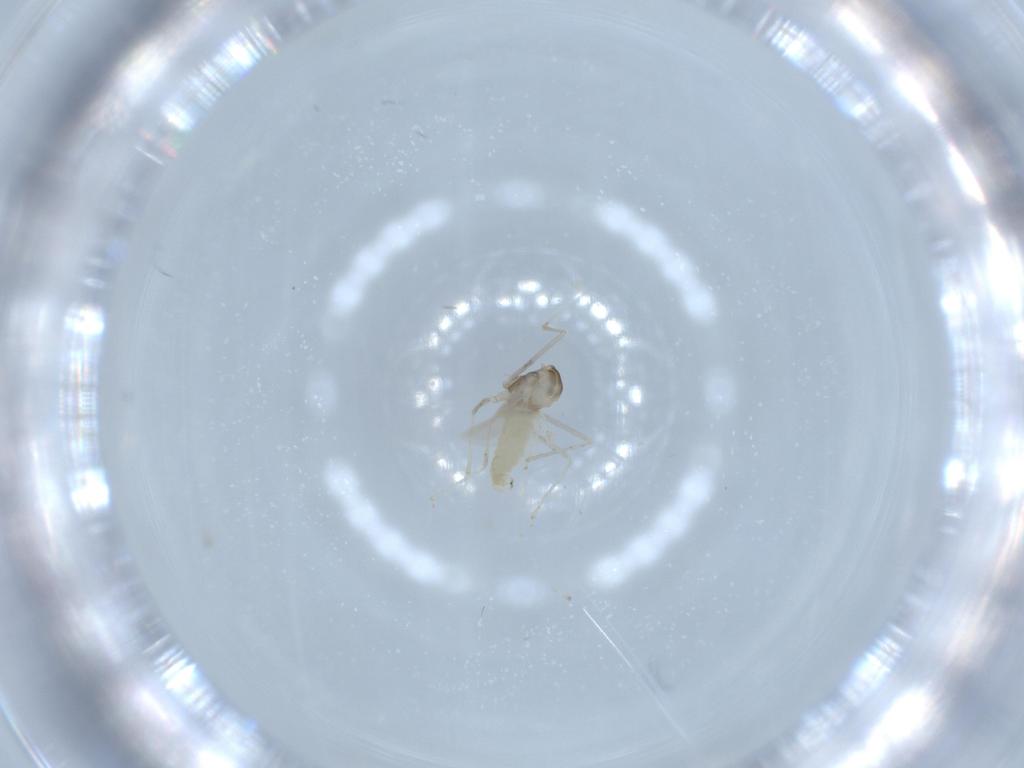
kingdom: Animalia
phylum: Arthropoda
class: Insecta
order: Diptera
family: Cecidomyiidae
